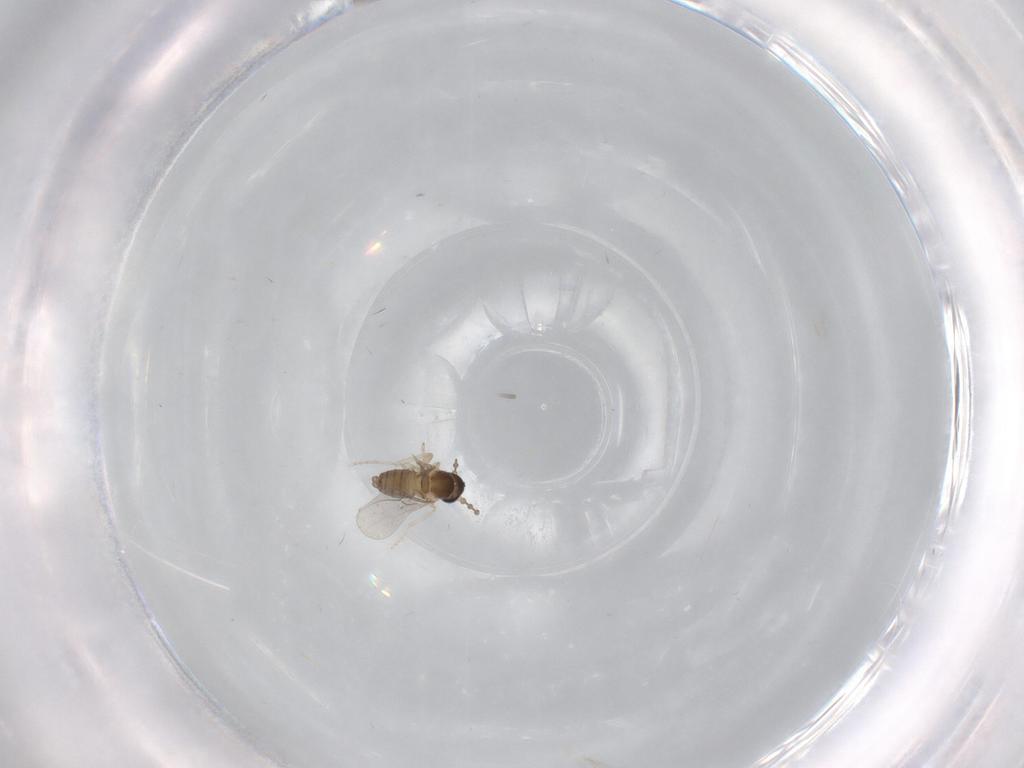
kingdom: Animalia
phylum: Arthropoda
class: Insecta
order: Diptera
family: Cecidomyiidae
